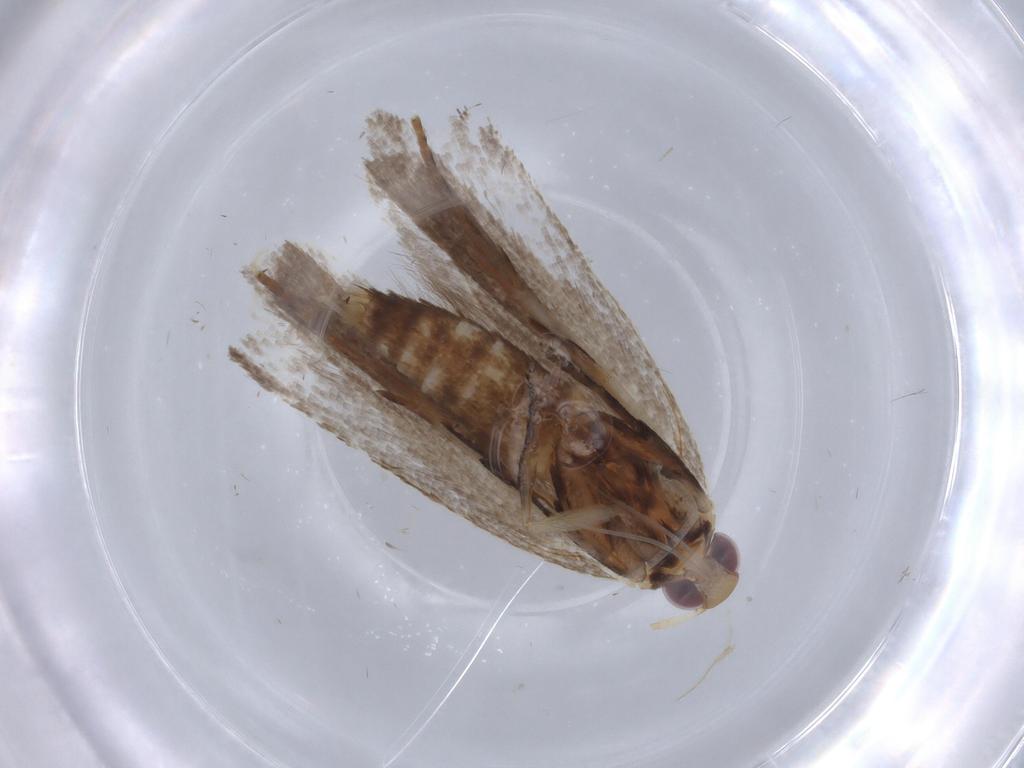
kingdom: Animalia
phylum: Arthropoda
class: Insecta
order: Lepidoptera
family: Crambidae
